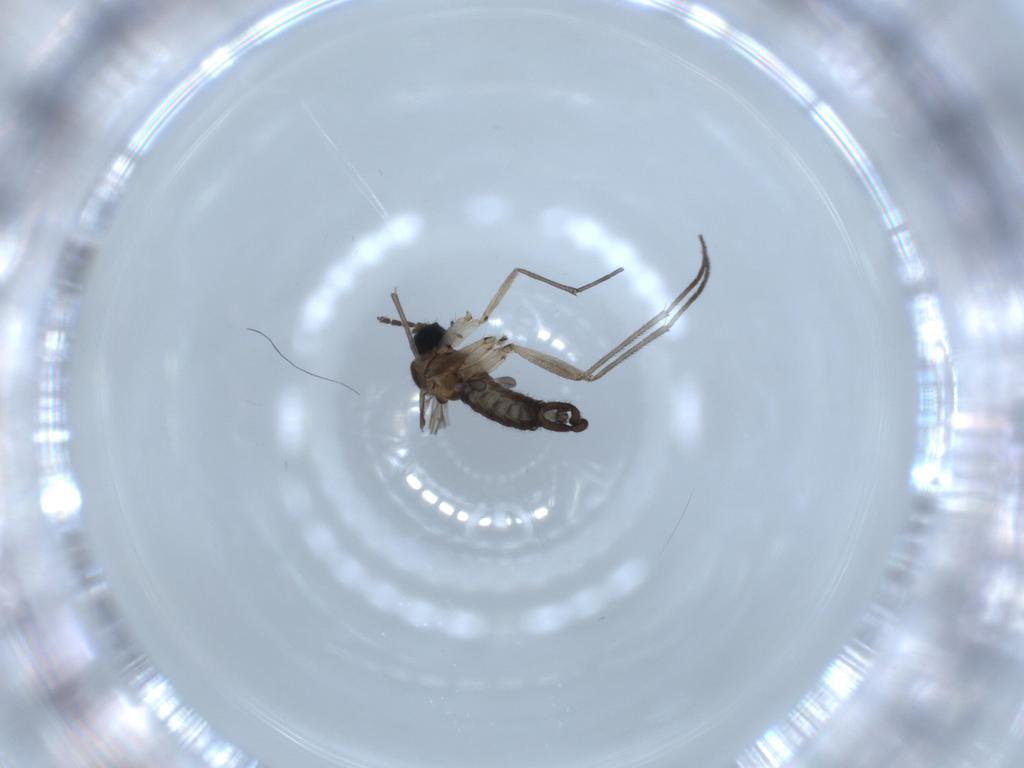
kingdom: Animalia
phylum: Arthropoda
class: Insecta
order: Diptera
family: Sciaridae
